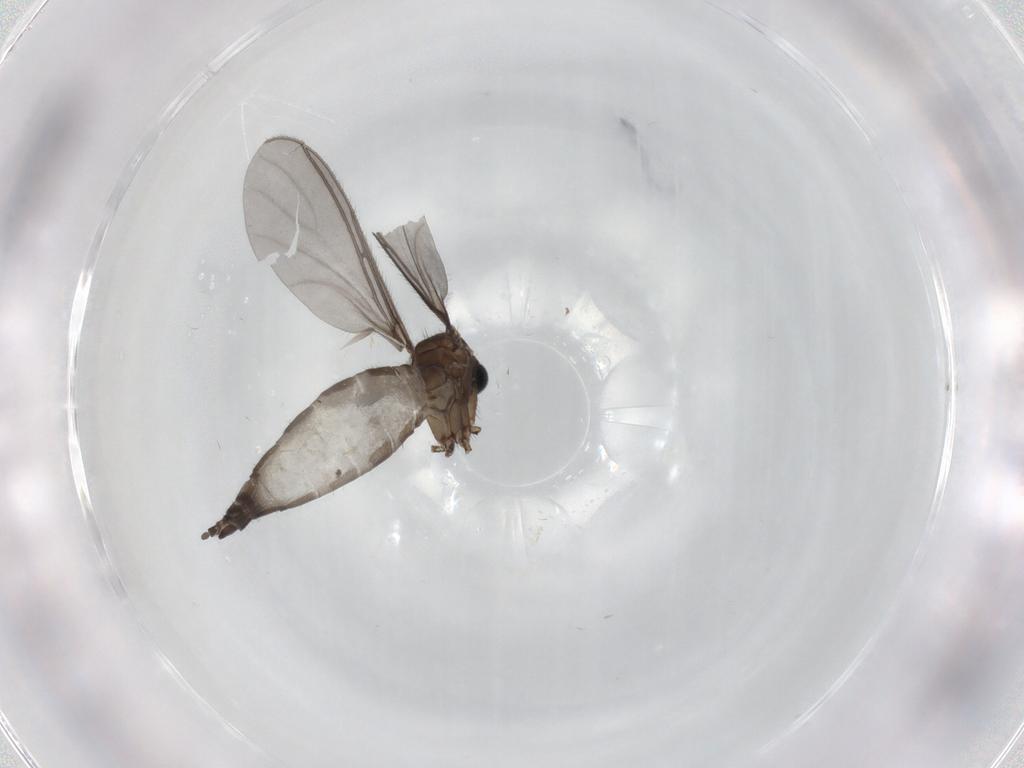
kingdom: Animalia
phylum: Arthropoda
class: Insecta
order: Diptera
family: Sciaridae
